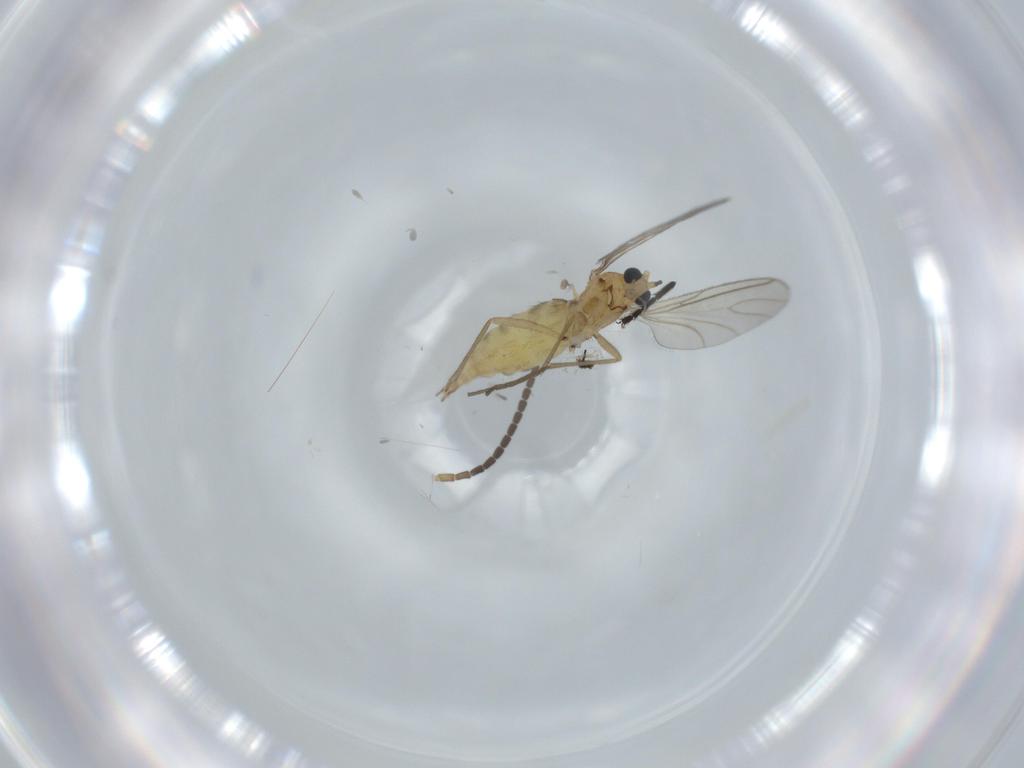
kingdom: Animalia
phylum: Arthropoda
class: Insecta
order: Diptera
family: Sciaridae
